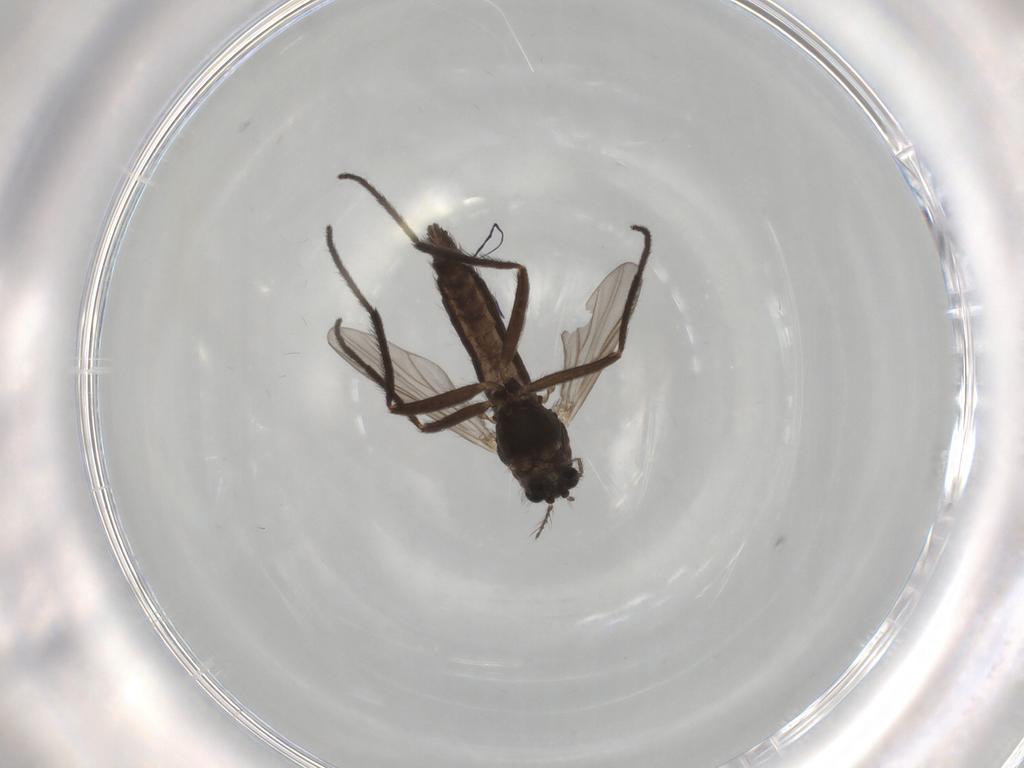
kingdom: Animalia
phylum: Arthropoda
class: Insecta
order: Diptera
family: Chironomidae
